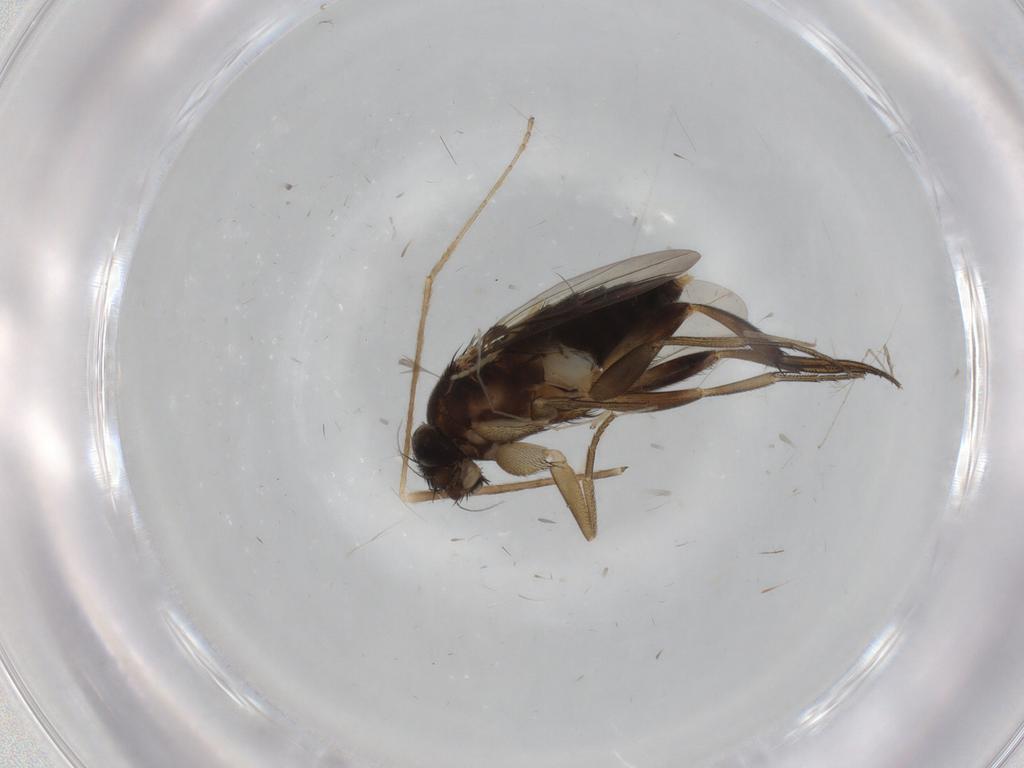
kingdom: Animalia
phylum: Arthropoda
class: Insecta
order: Diptera
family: Phoridae
